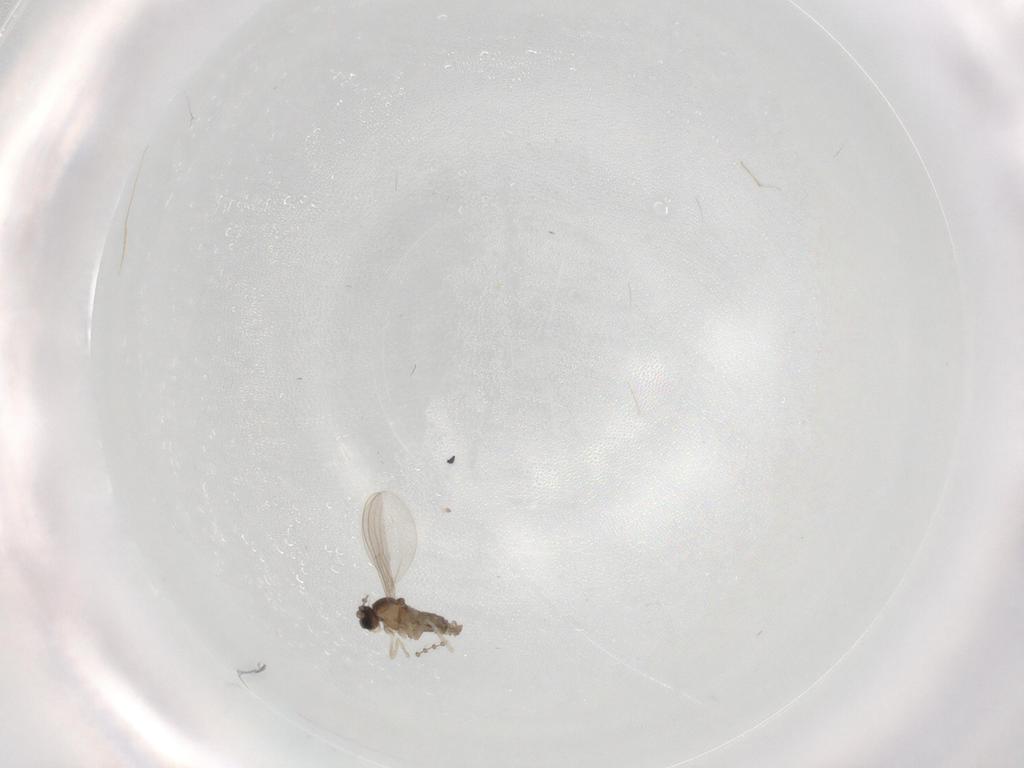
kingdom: Animalia
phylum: Arthropoda
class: Insecta
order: Diptera
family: Cecidomyiidae
